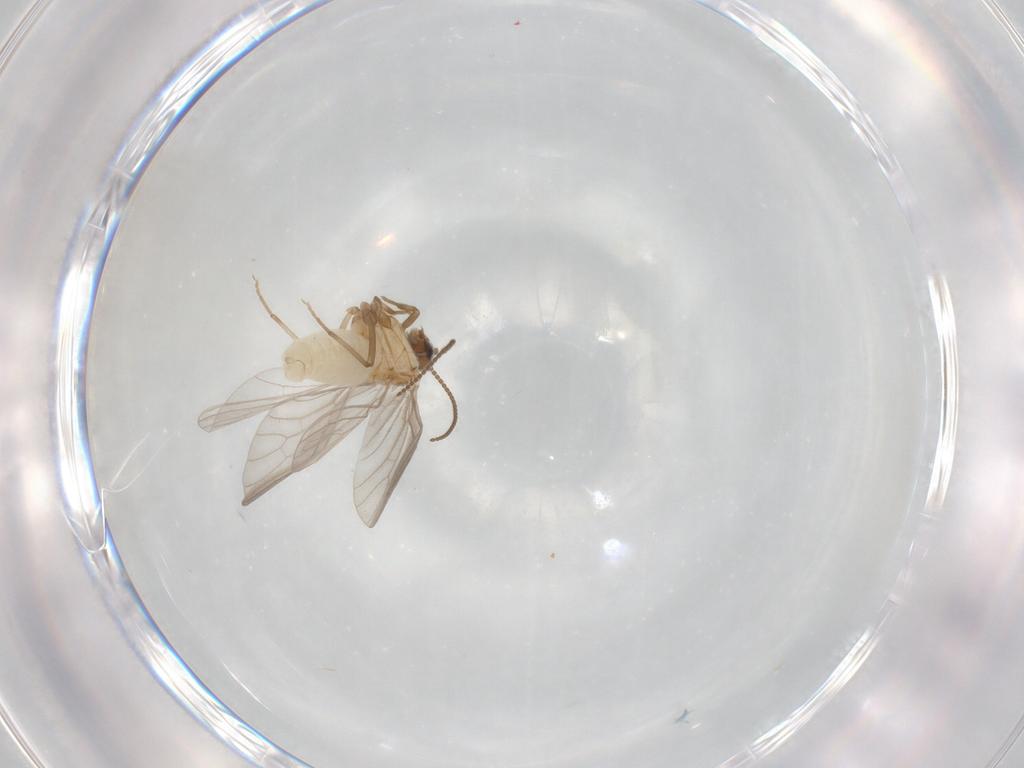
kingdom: Animalia
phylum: Arthropoda
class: Insecta
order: Neuroptera
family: Coniopterygidae
